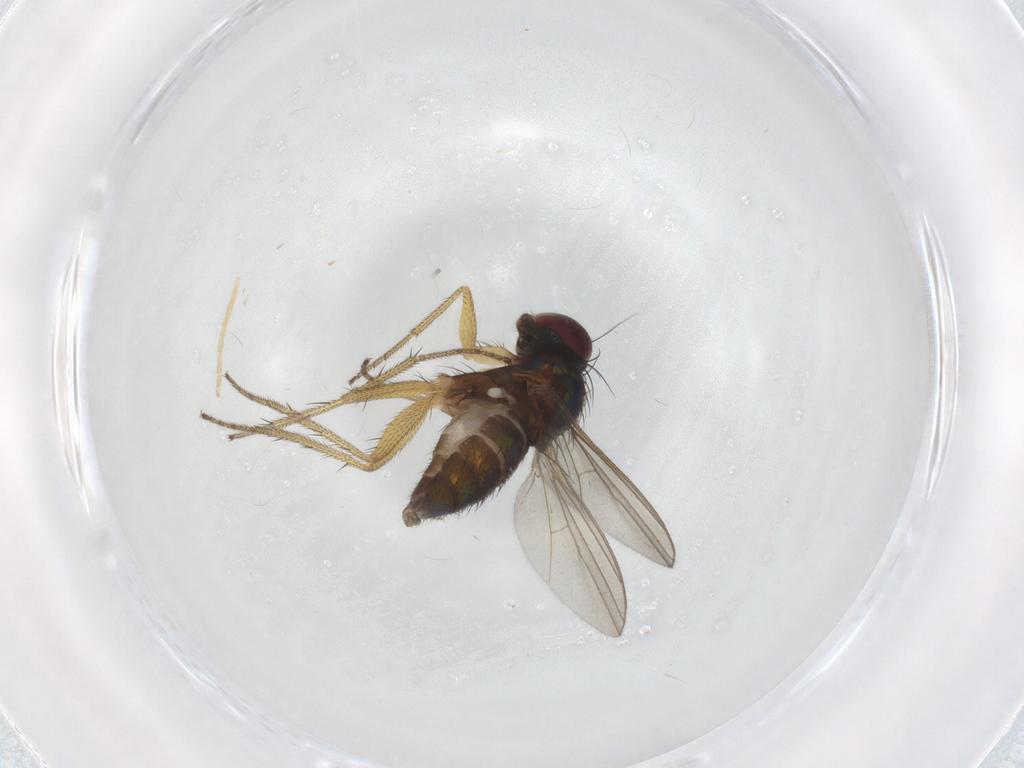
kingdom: Animalia
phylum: Arthropoda
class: Insecta
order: Diptera
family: Dolichopodidae
